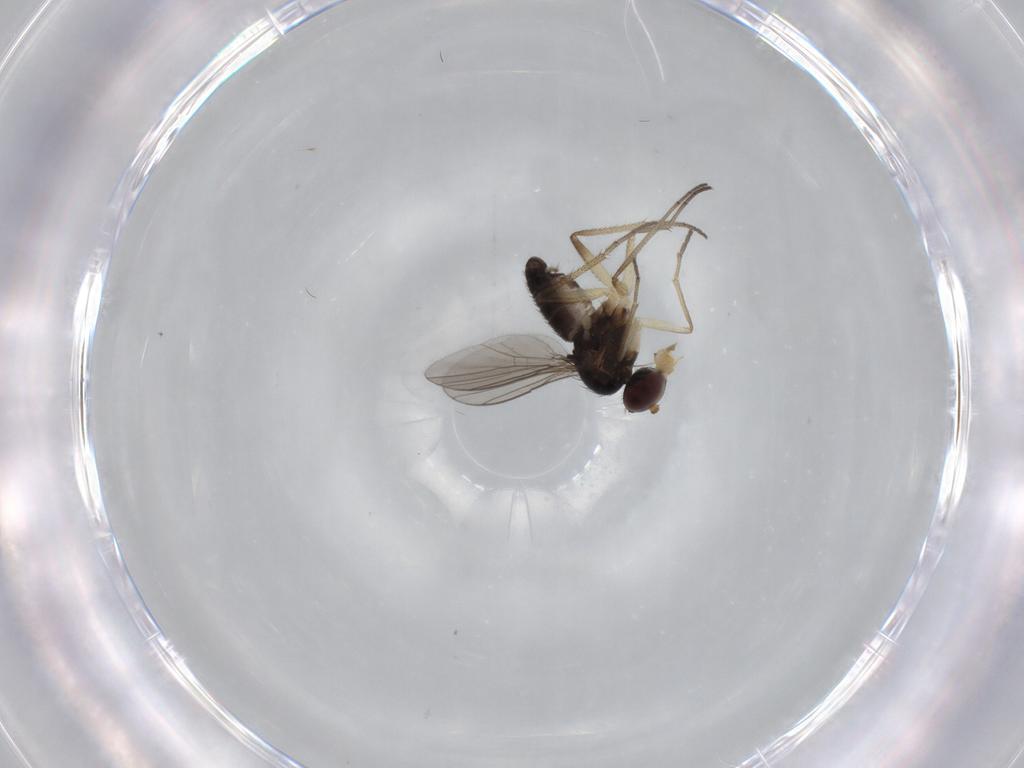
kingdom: Animalia
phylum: Arthropoda
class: Insecta
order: Diptera
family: Dolichopodidae
